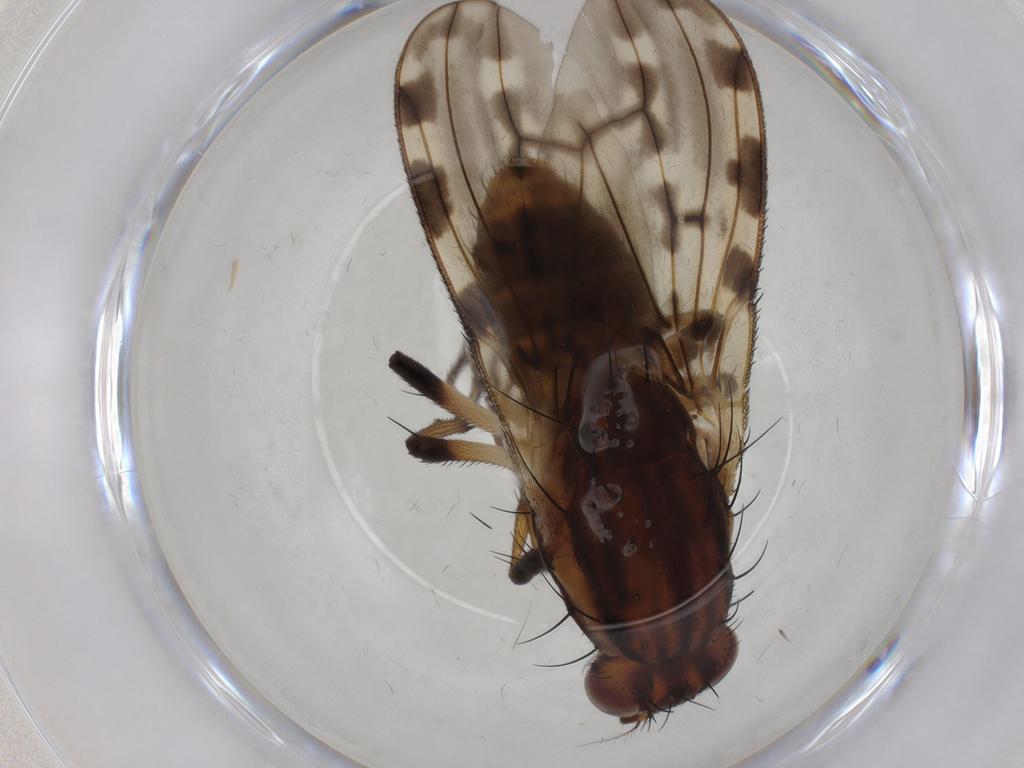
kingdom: Animalia
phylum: Arthropoda
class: Insecta
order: Diptera
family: Heleomyzidae
